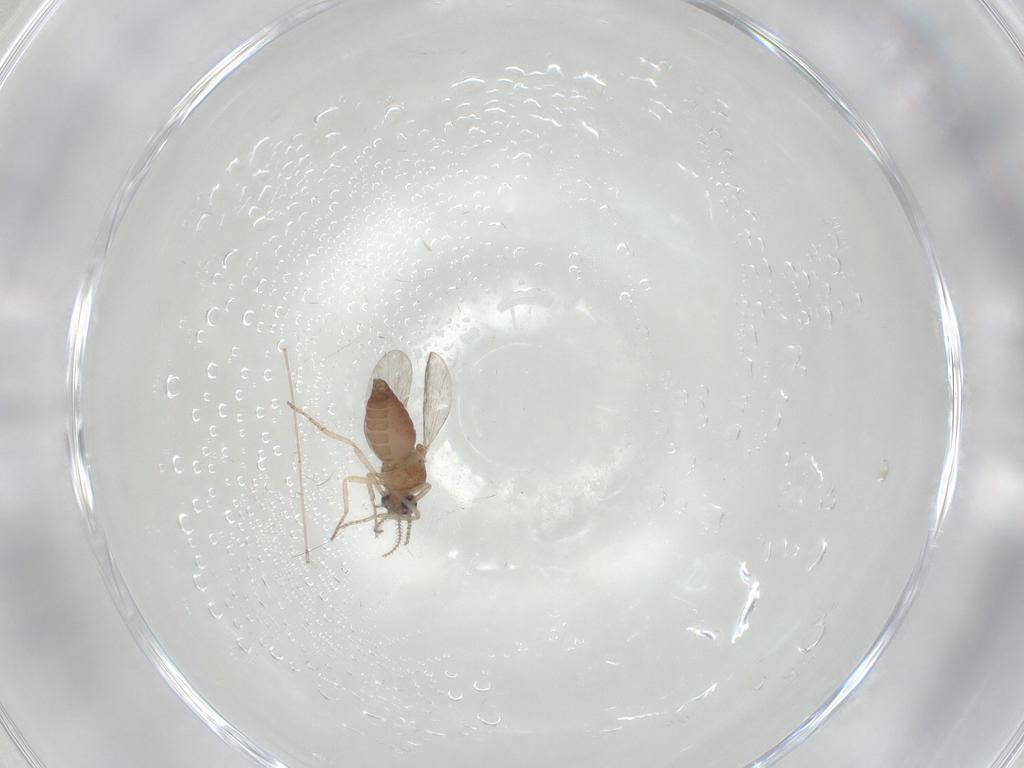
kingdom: Animalia
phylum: Arthropoda
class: Insecta
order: Diptera
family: Ceratopogonidae
